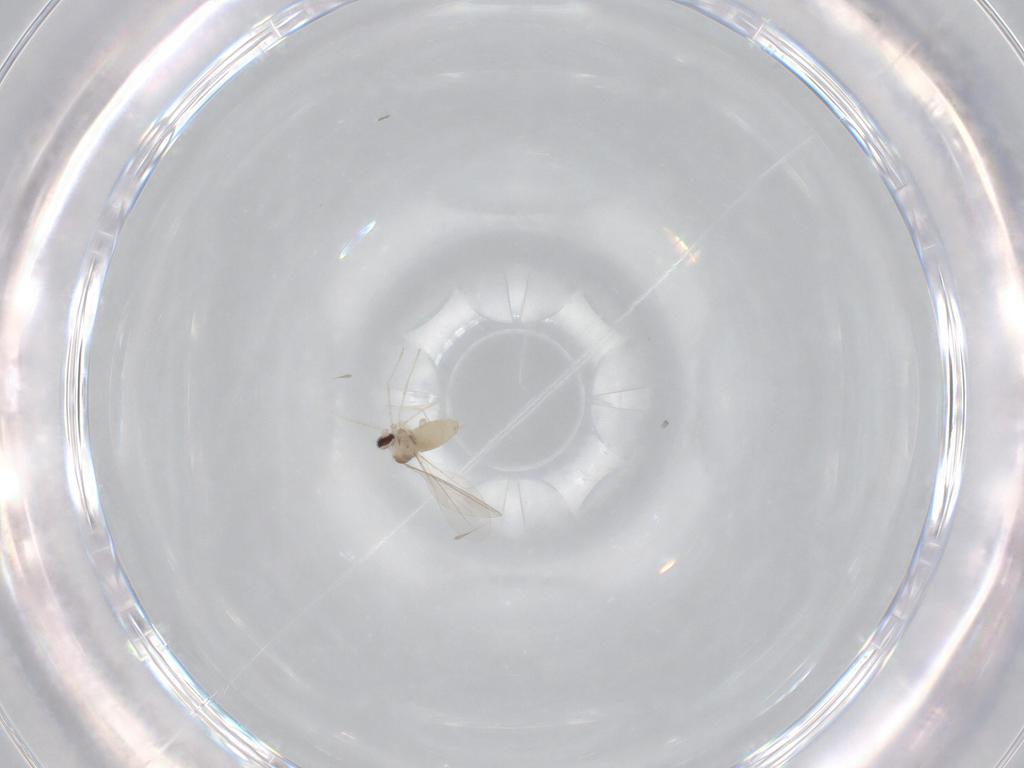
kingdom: Animalia
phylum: Arthropoda
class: Insecta
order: Diptera
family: Cecidomyiidae
